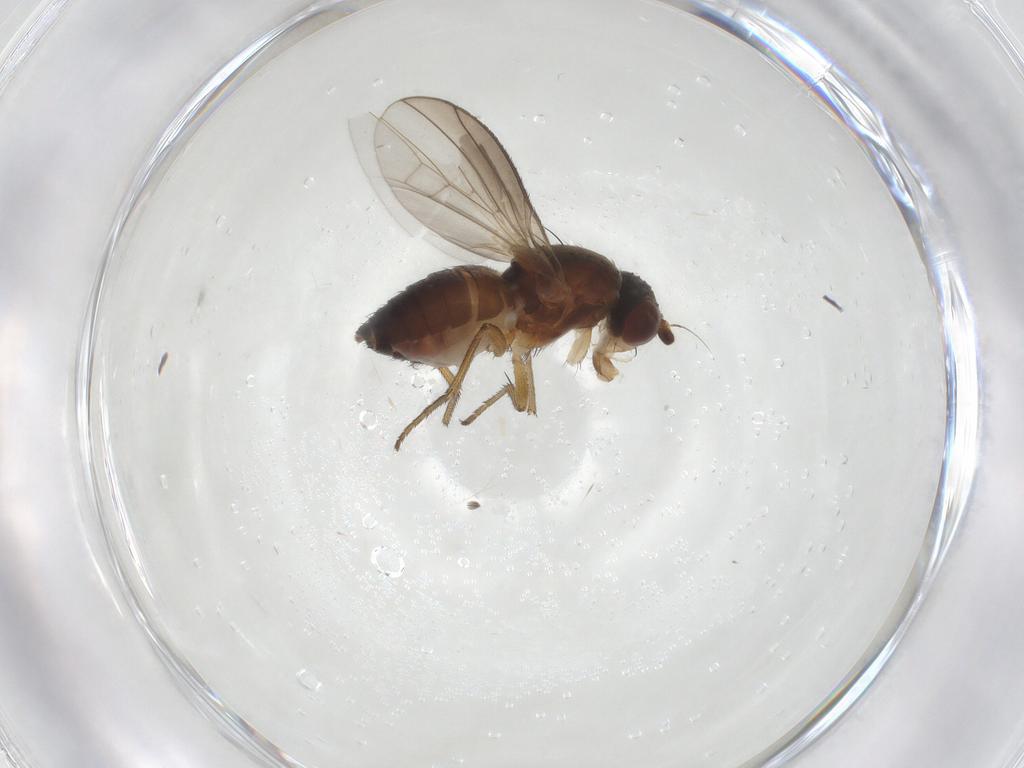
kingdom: Animalia
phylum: Arthropoda
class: Insecta
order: Diptera
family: Heleomyzidae
